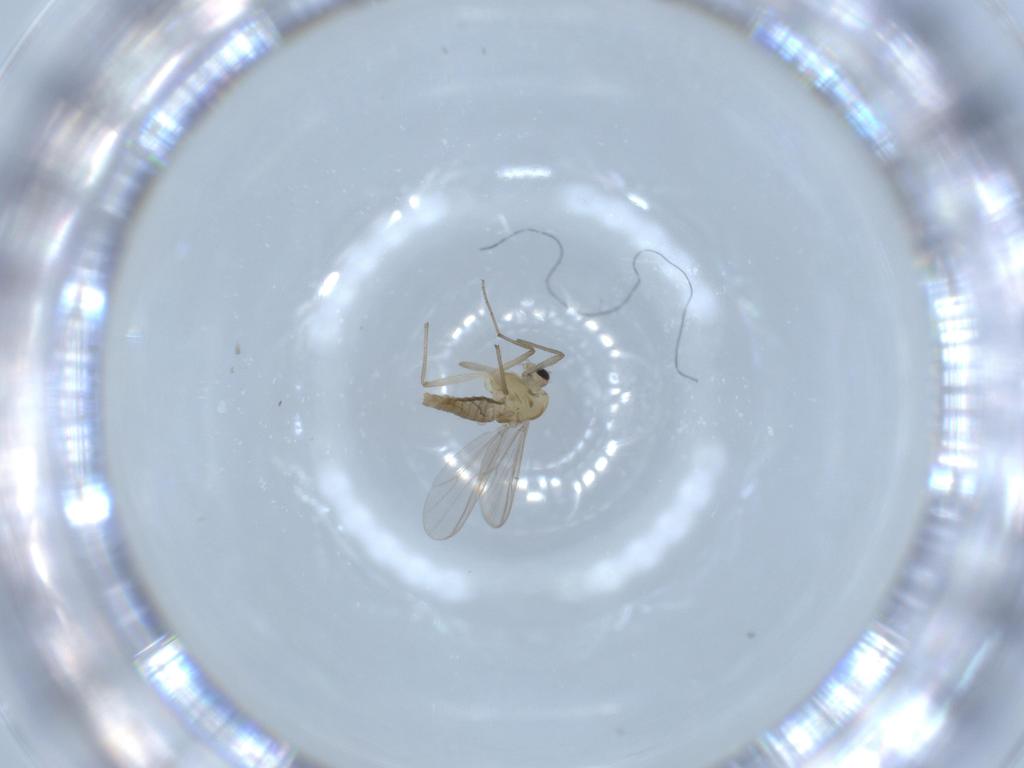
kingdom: Animalia
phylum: Arthropoda
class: Insecta
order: Diptera
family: Chironomidae
